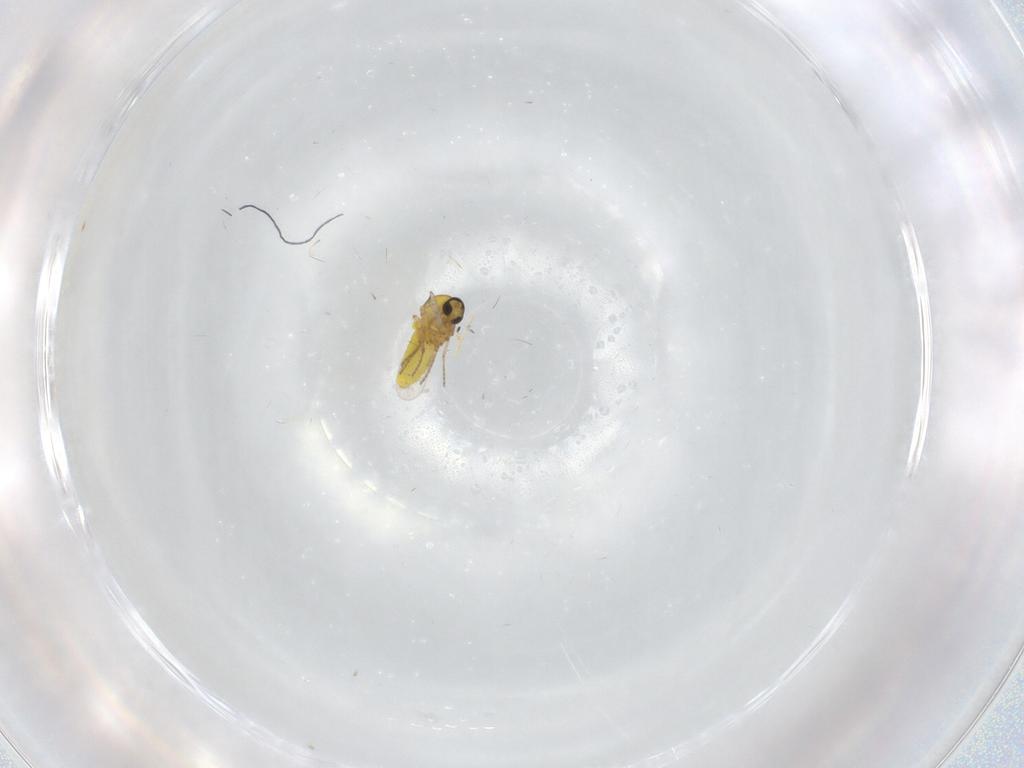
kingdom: Animalia
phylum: Arthropoda
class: Insecta
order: Diptera
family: Ceratopogonidae
